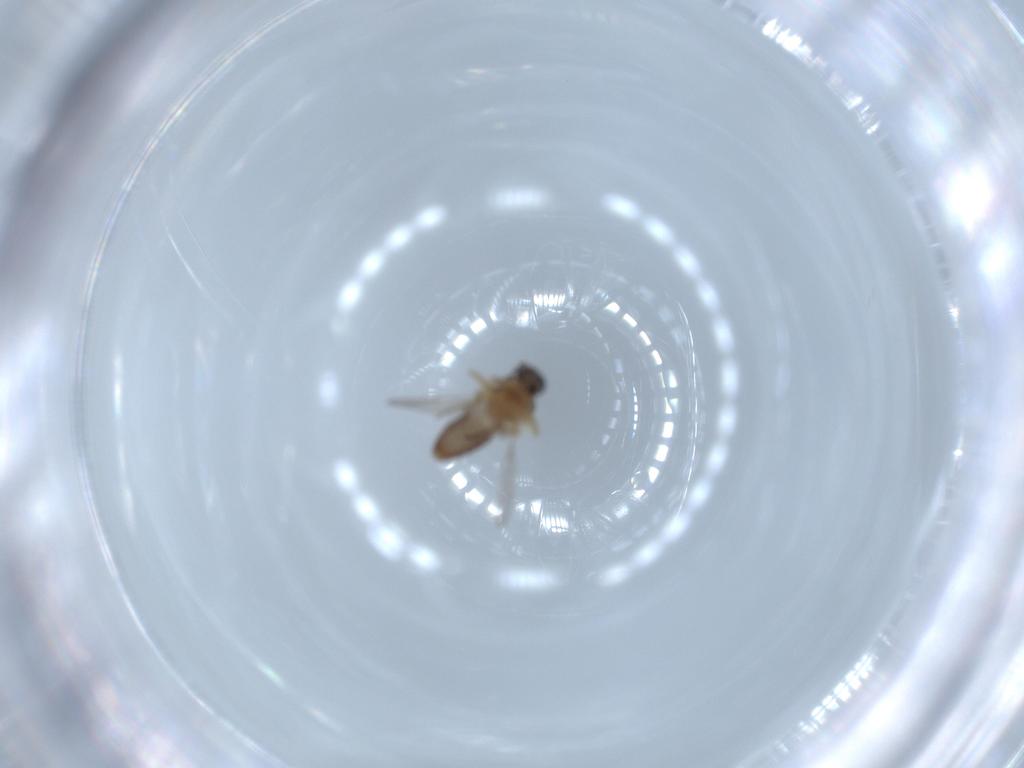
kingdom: Animalia
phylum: Arthropoda
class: Insecta
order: Diptera
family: Ceratopogonidae
